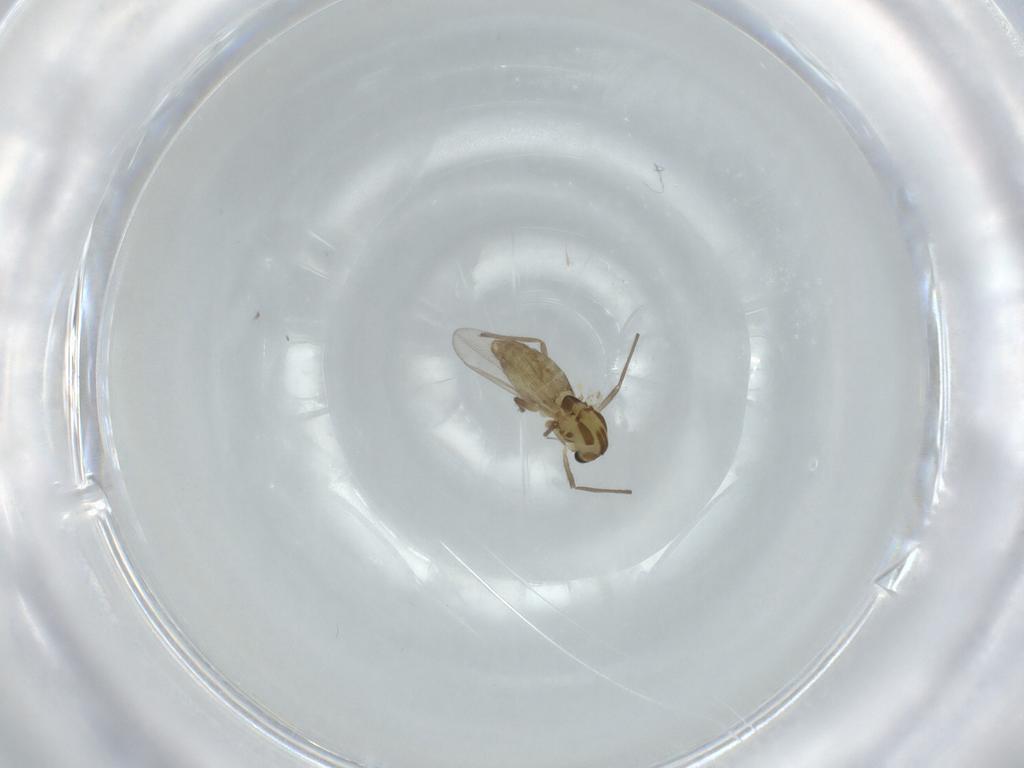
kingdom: Animalia
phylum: Arthropoda
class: Insecta
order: Diptera
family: Chironomidae
